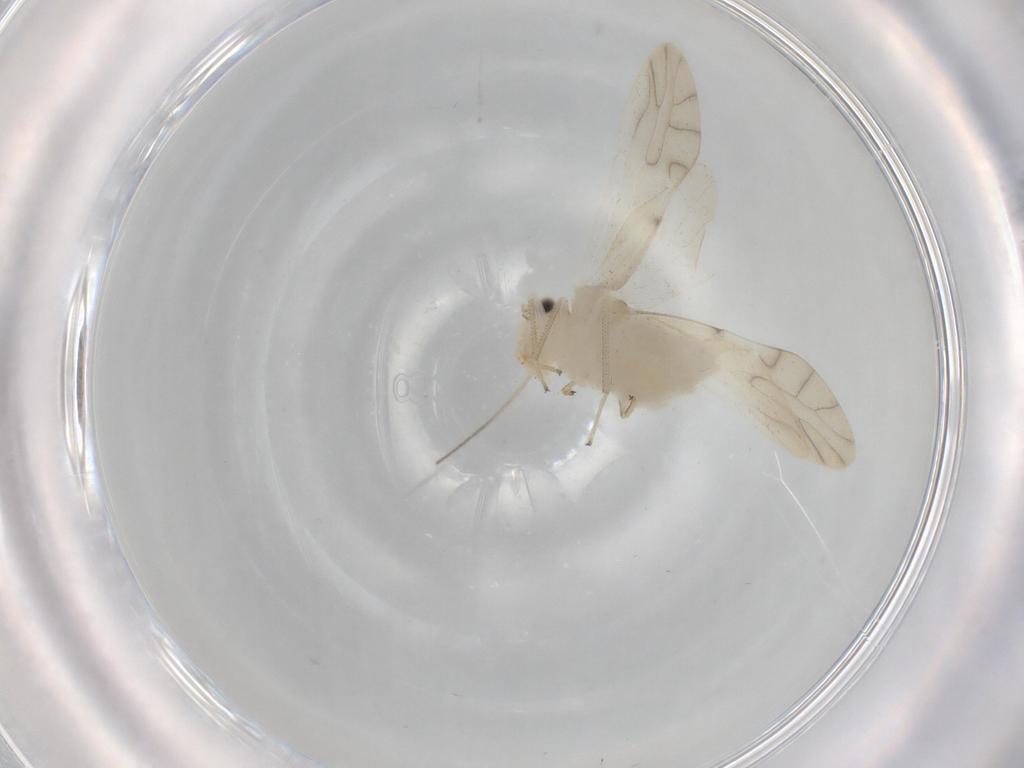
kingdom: Animalia
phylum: Arthropoda
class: Insecta
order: Psocodea
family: Caeciliusidae
